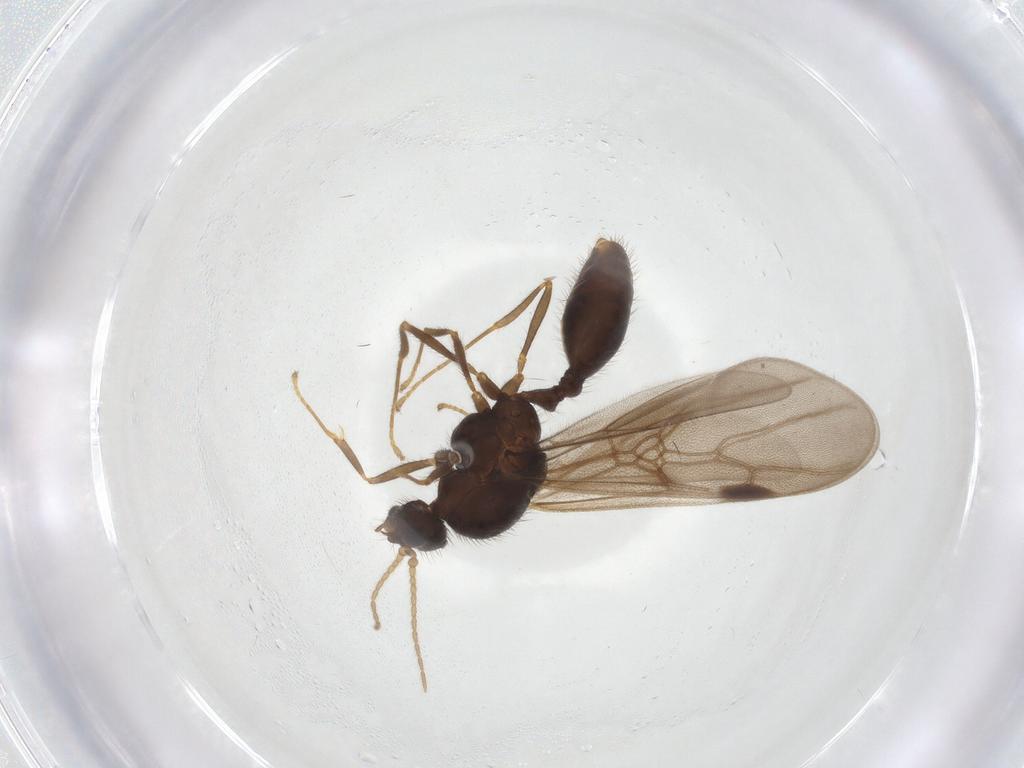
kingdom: Animalia
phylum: Arthropoda
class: Insecta
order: Hymenoptera
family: Formicidae
